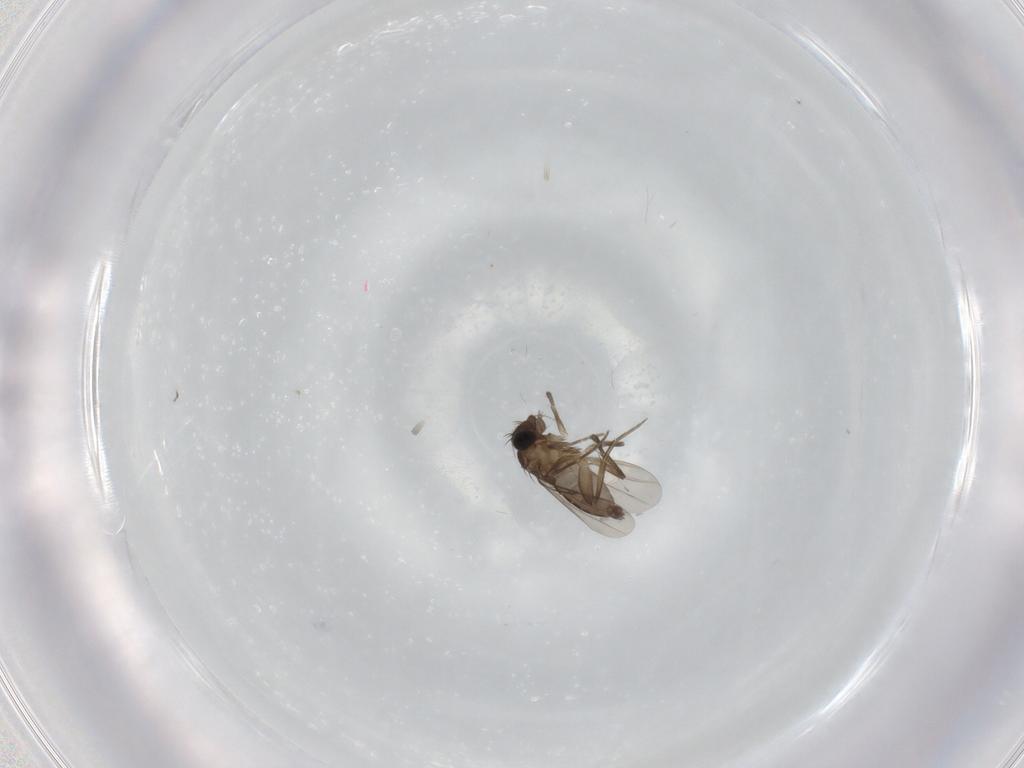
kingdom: Animalia
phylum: Arthropoda
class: Insecta
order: Diptera
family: Phoridae
